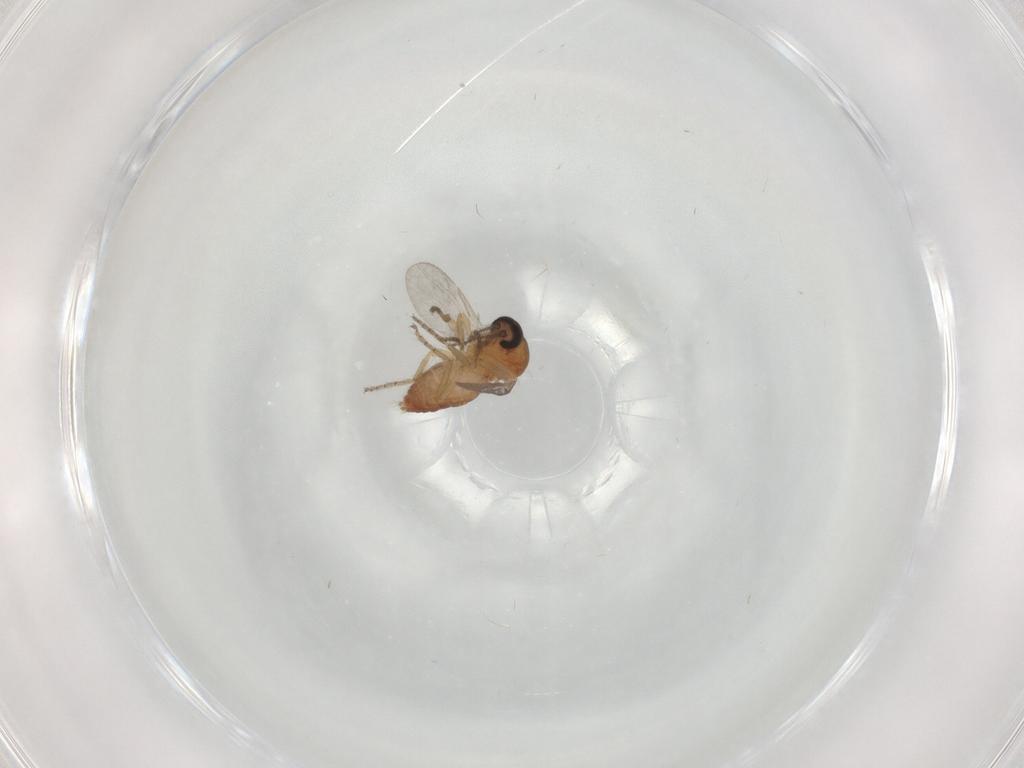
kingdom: Animalia
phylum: Arthropoda
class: Insecta
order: Diptera
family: Ceratopogonidae
